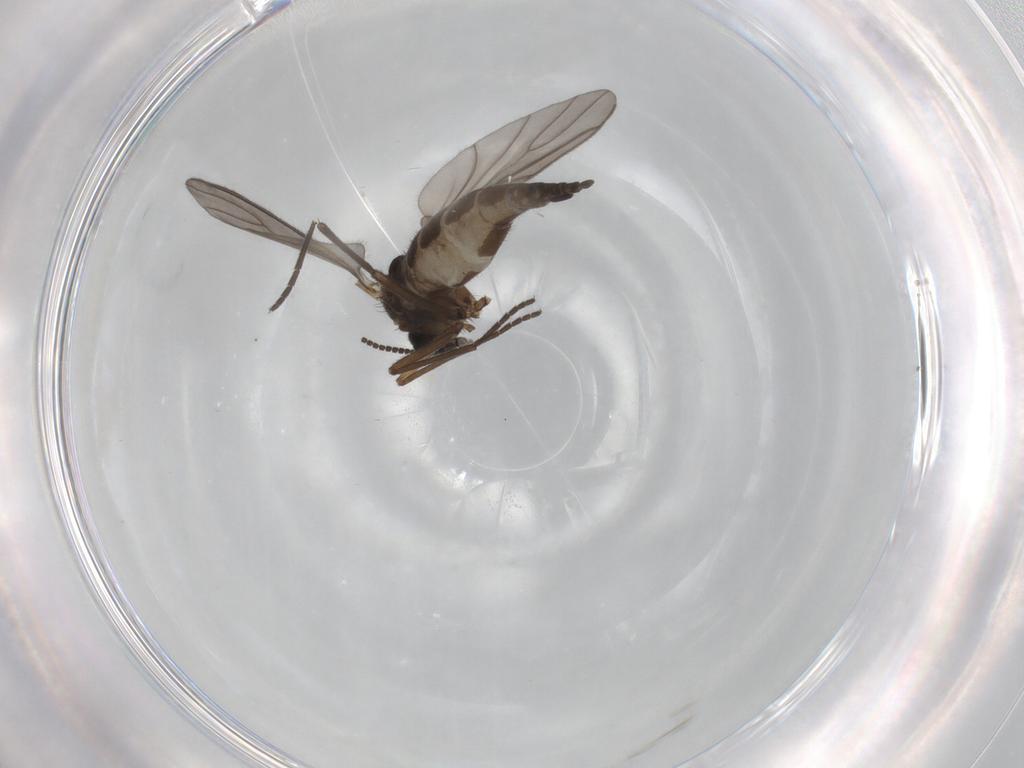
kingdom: Animalia
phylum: Arthropoda
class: Insecta
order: Diptera
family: Sciaridae
